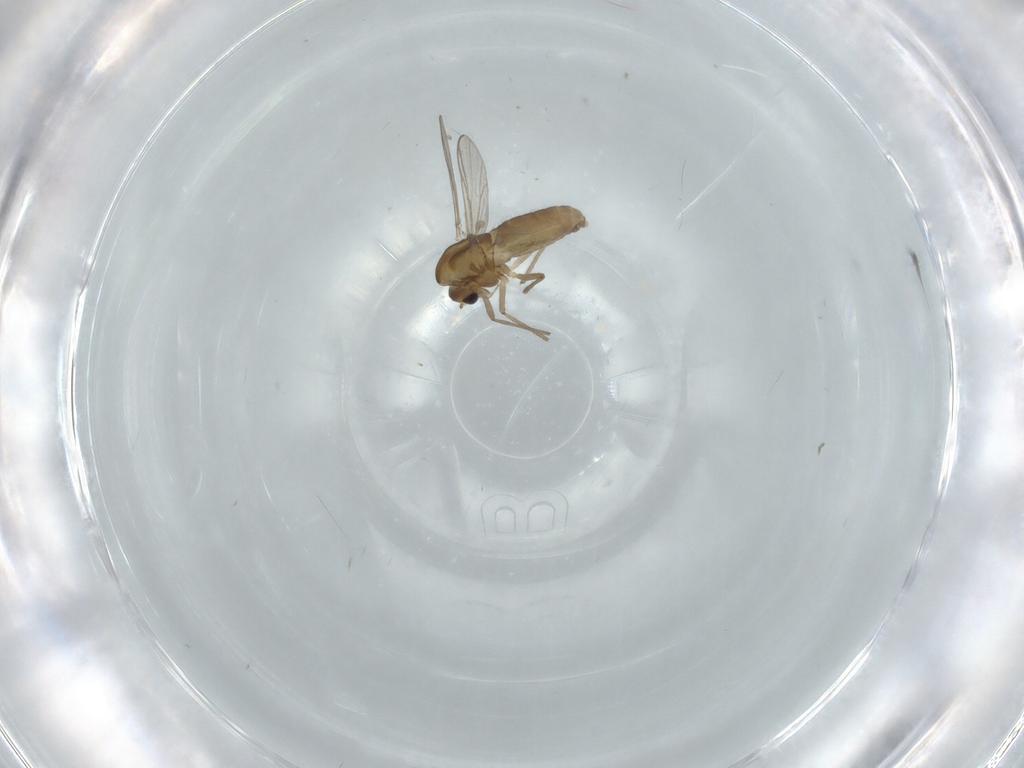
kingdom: Animalia
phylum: Arthropoda
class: Insecta
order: Diptera
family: Chironomidae
